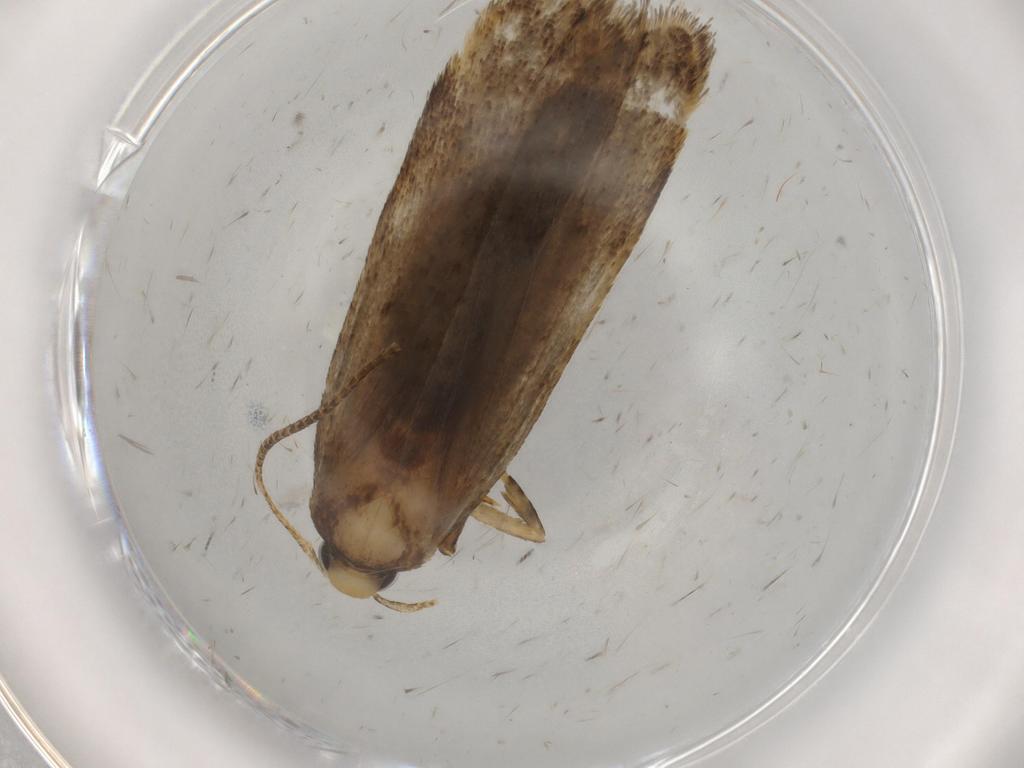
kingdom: Animalia
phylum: Arthropoda
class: Insecta
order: Lepidoptera
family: Autostichidae
